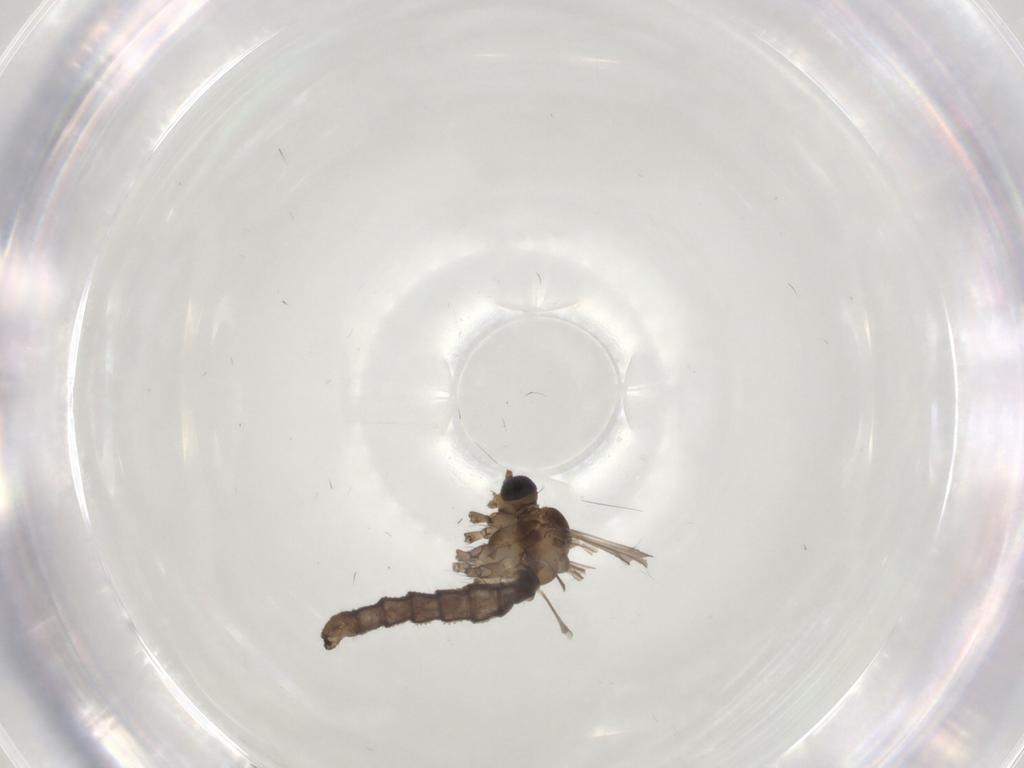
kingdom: Animalia
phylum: Arthropoda
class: Insecta
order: Diptera
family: Limoniidae
